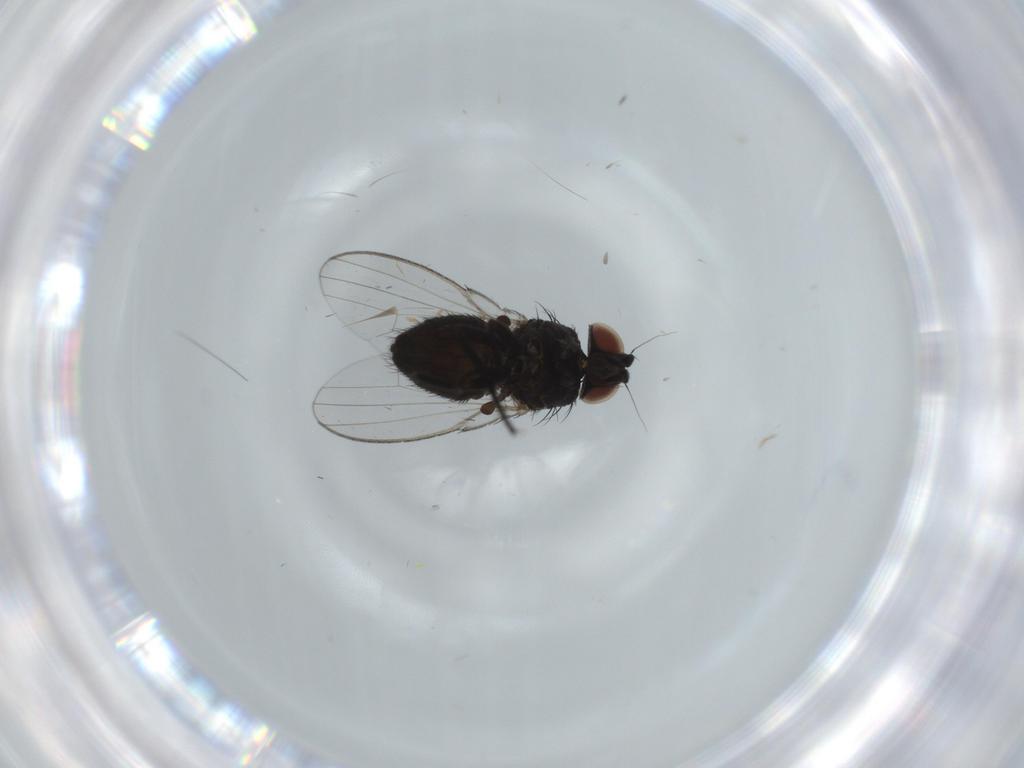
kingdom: Animalia
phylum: Arthropoda
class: Insecta
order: Diptera
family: Milichiidae
